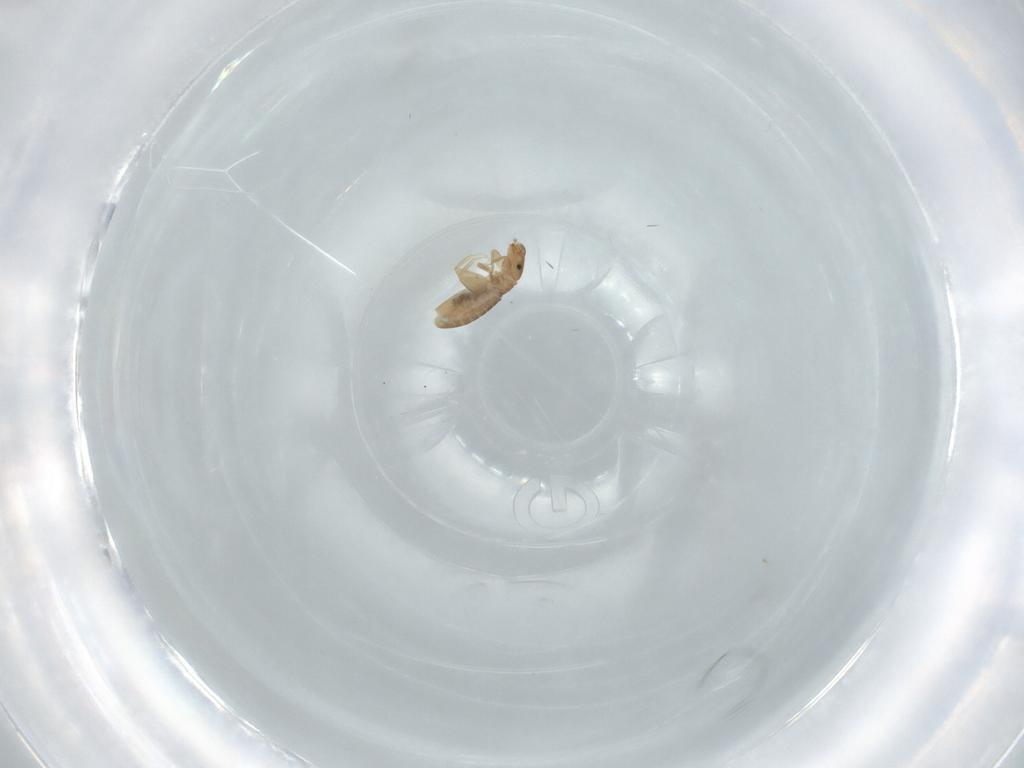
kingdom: Animalia
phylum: Arthropoda
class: Insecta
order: Psocodea
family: Liposcelididae
